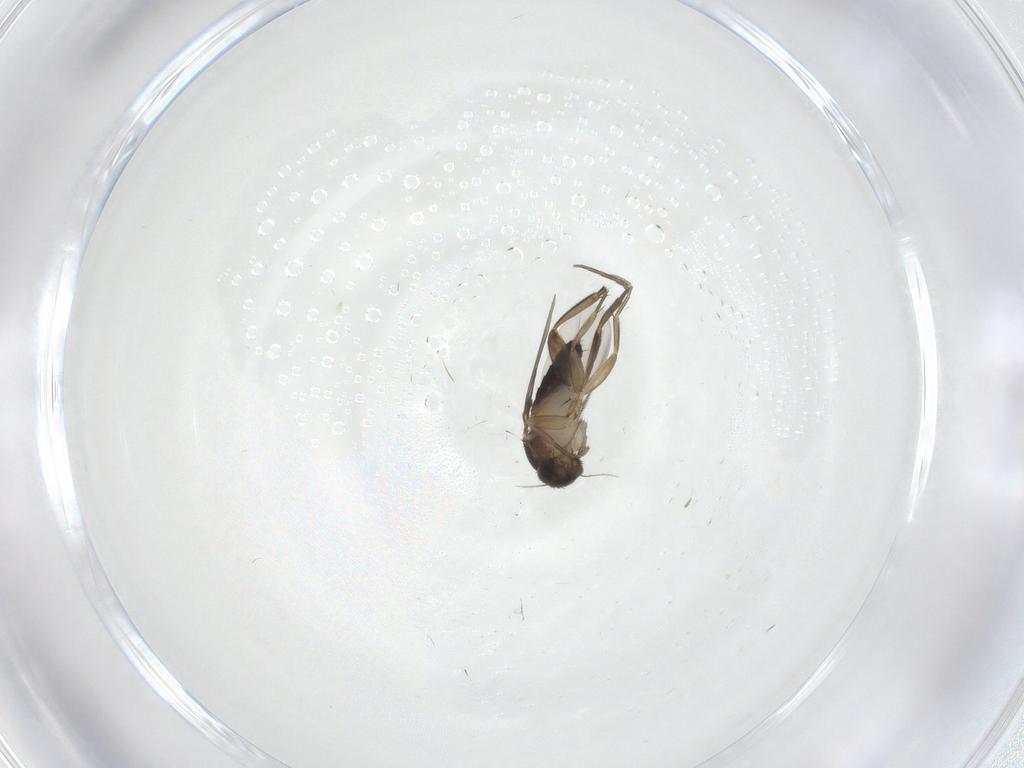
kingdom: Animalia
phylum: Arthropoda
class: Insecta
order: Diptera
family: Phoridae
